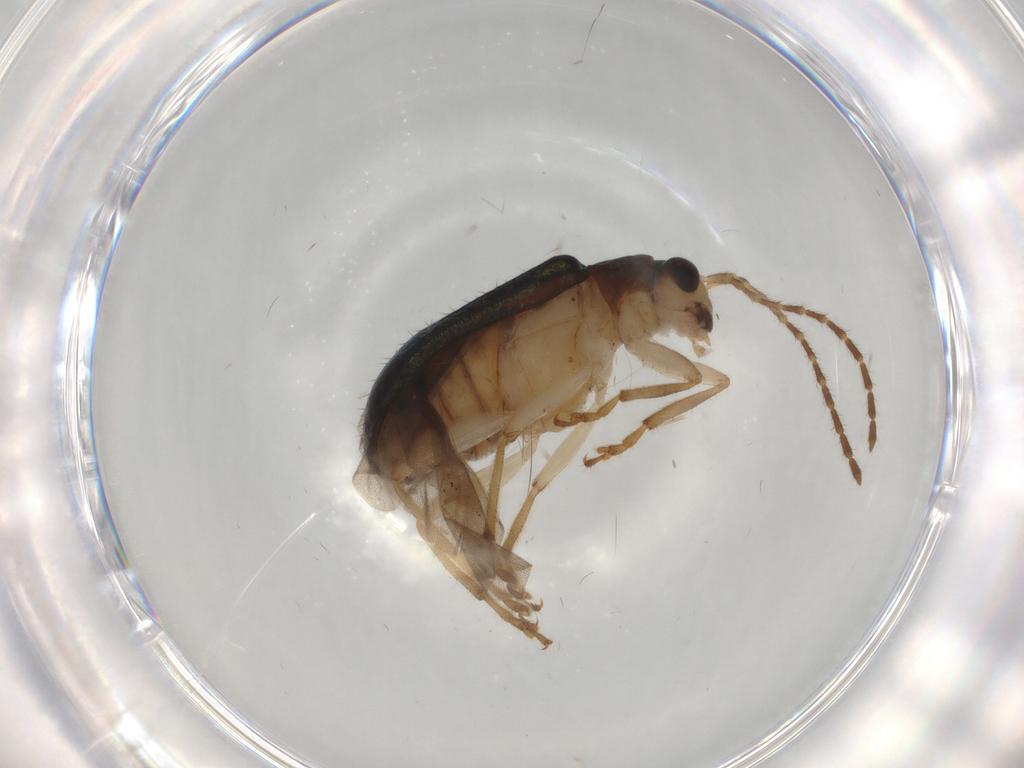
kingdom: Animalia
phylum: Arthropoda
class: Insecta
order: Coleoptera
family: Chrysomelidae
